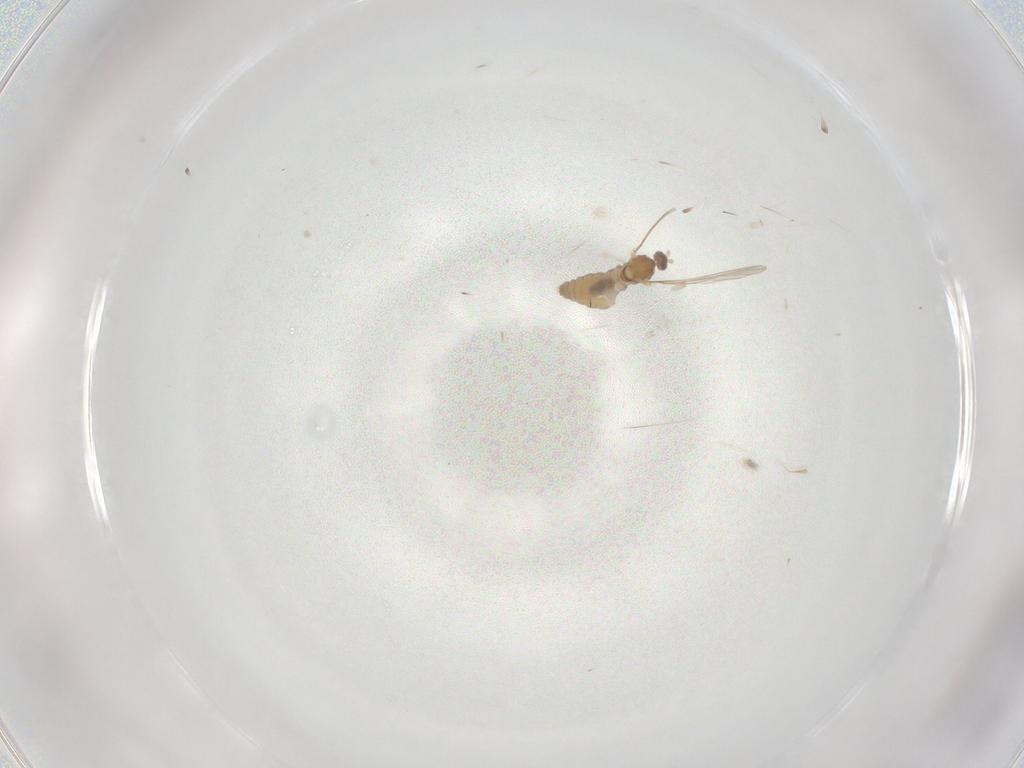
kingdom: Animalia
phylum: Arthropoda
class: Insecta
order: Diptera
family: Cecidomyiidae
